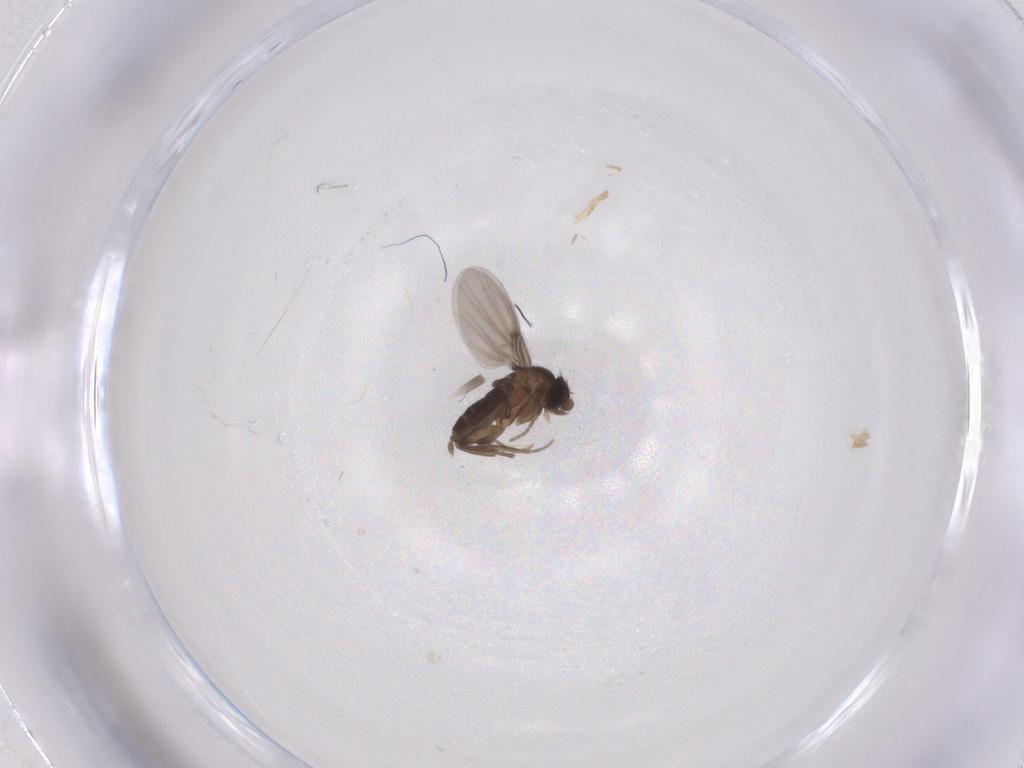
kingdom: Animalia
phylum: Arthropoda
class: Insecta
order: Diptera
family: Phoridae
